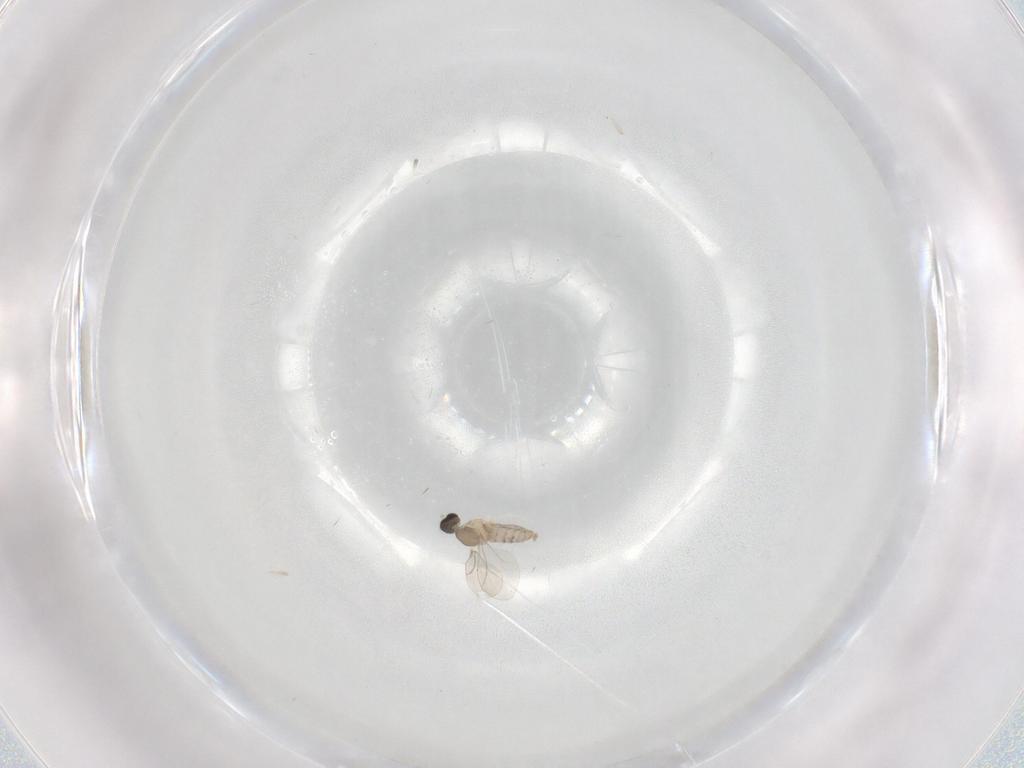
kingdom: Animalia
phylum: Arthropoda
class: Insecta
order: Diptera
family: Cecidomyiidae
